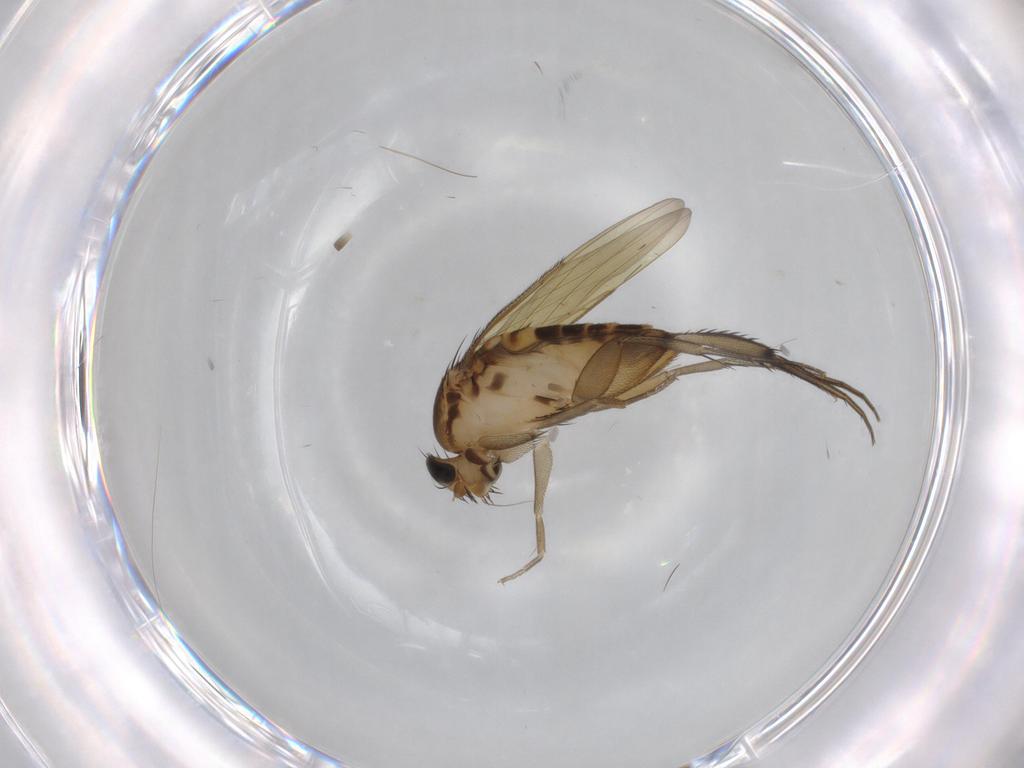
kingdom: Animalia
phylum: Arthropoda
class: Insecta
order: Diptera
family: Phoridae
